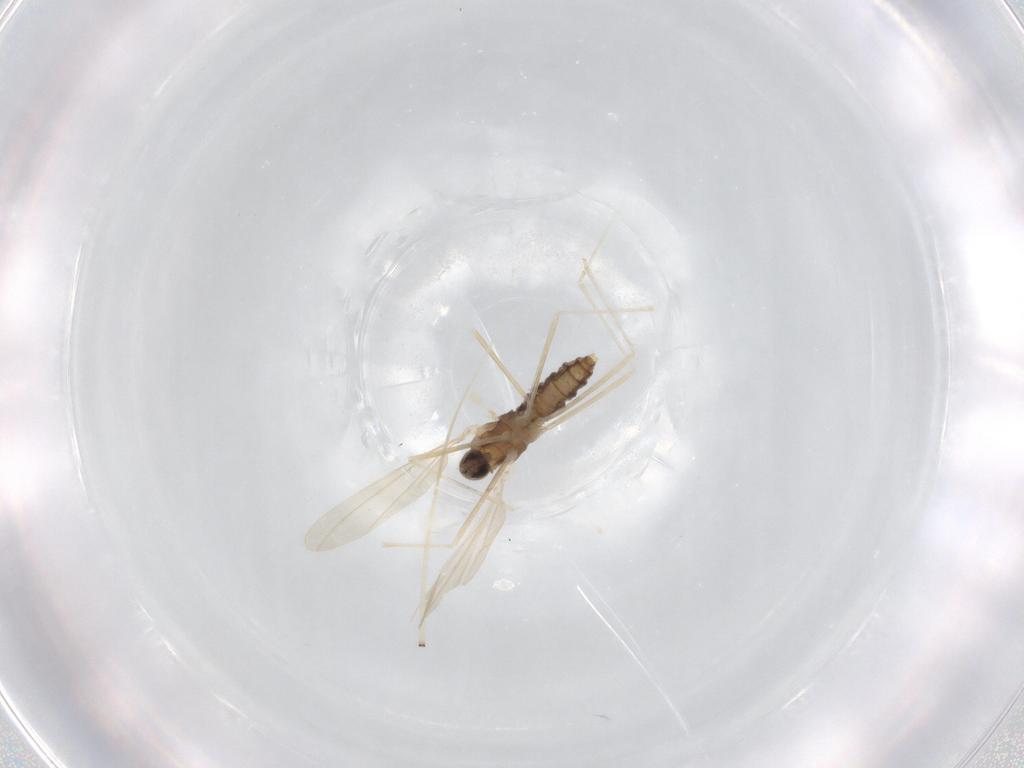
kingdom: Animalia
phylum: Arthropoda
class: Insecta
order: Diptera
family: Cecidomyiidae
